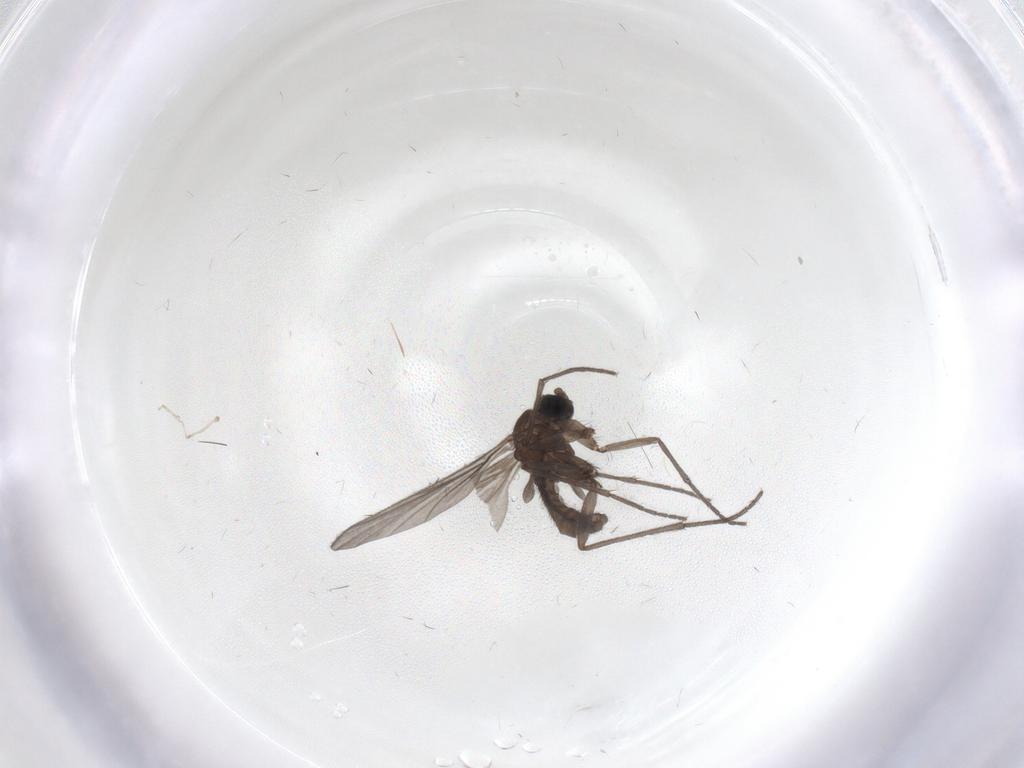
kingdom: Animalia
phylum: Arthropoda
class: Insecta
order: Diptera
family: Sciaridae
